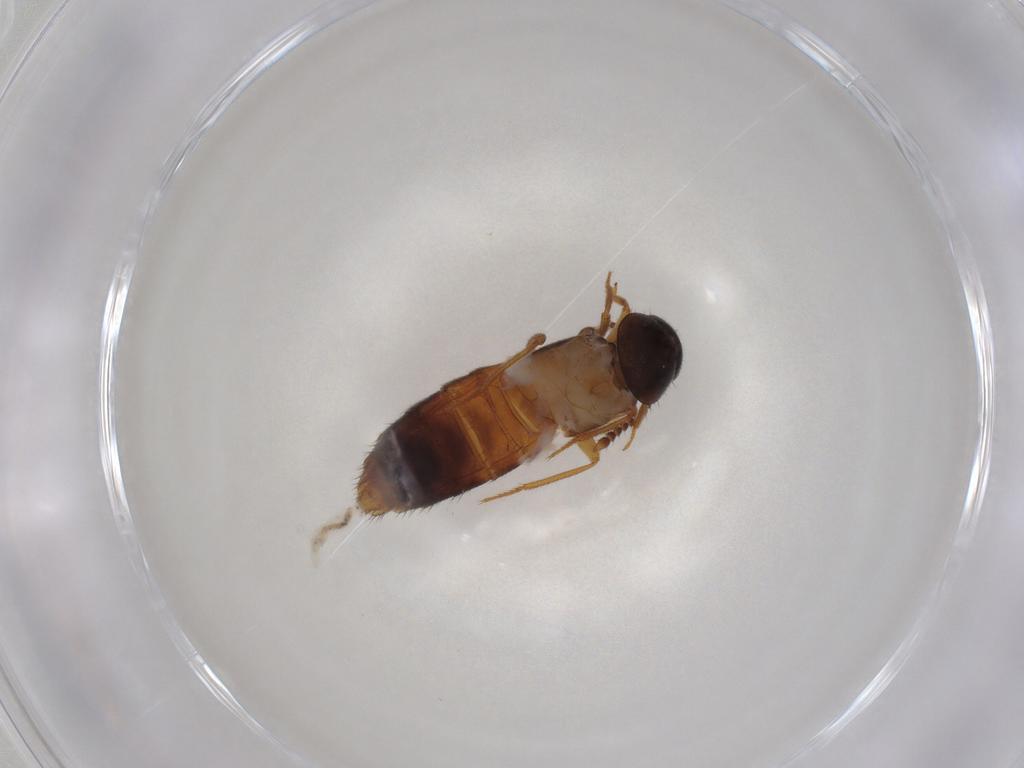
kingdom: Animalia
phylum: Arthropoda
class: Insecta
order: Coleoptera
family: Staphylinidae
